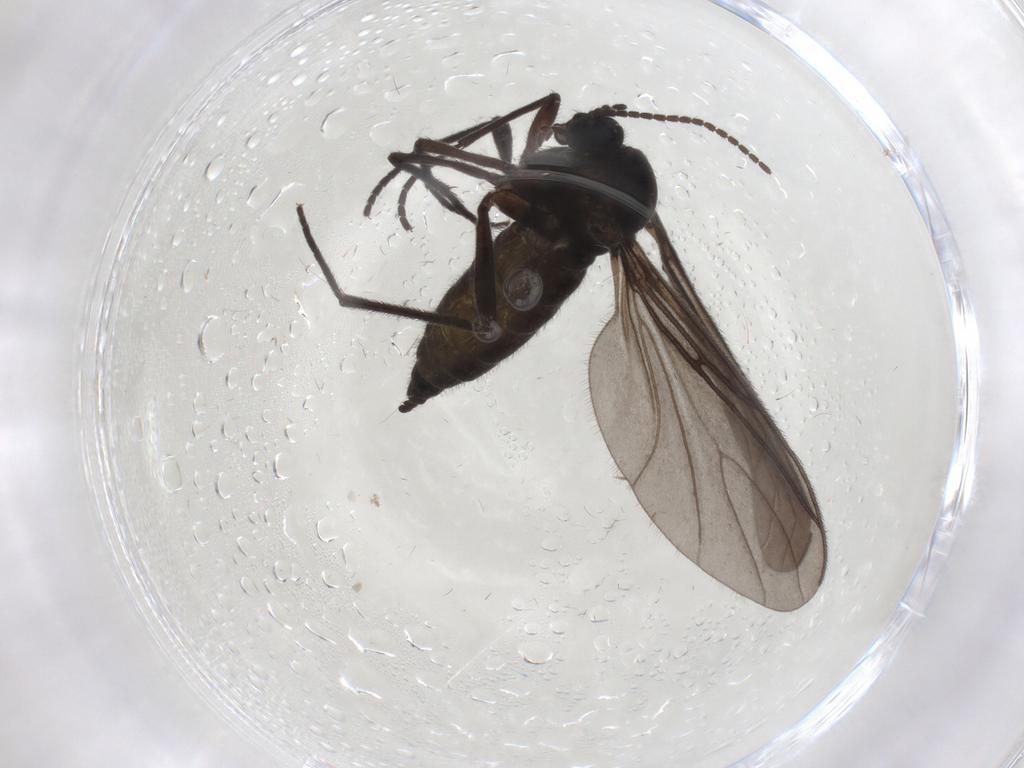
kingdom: Animalia
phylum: Arthropoda
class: Insecta
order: Diptera
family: Sciaridae
